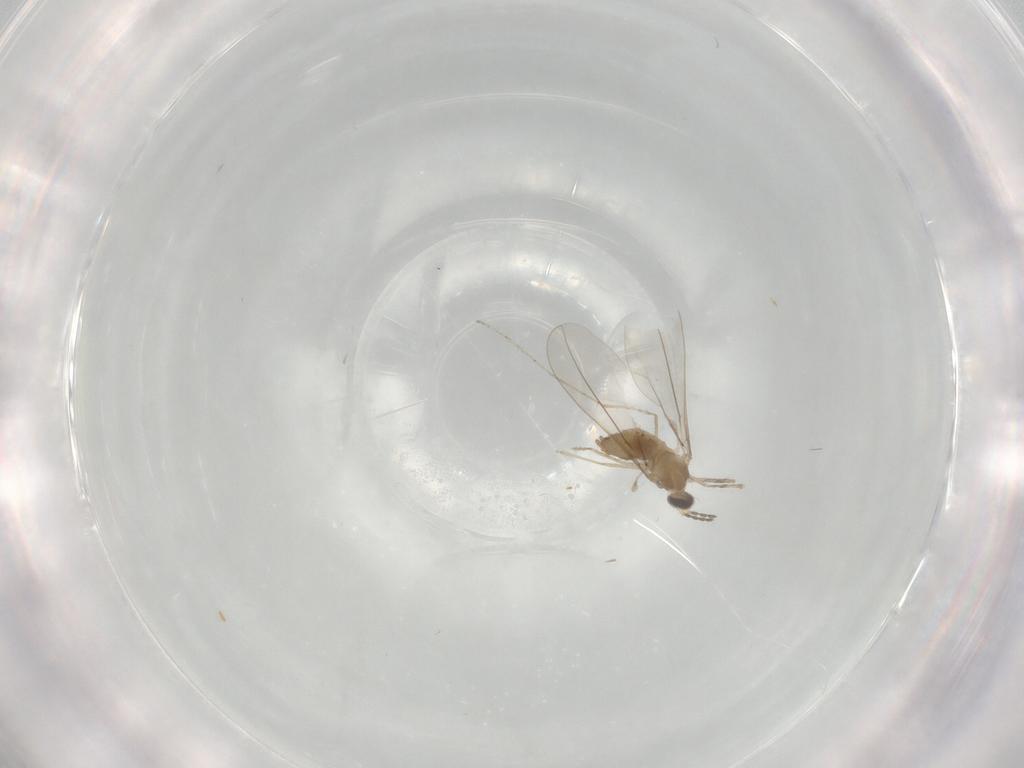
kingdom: Animalia
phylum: Arthropoda
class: Insecta
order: Diptera
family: Cecidomyiidae
